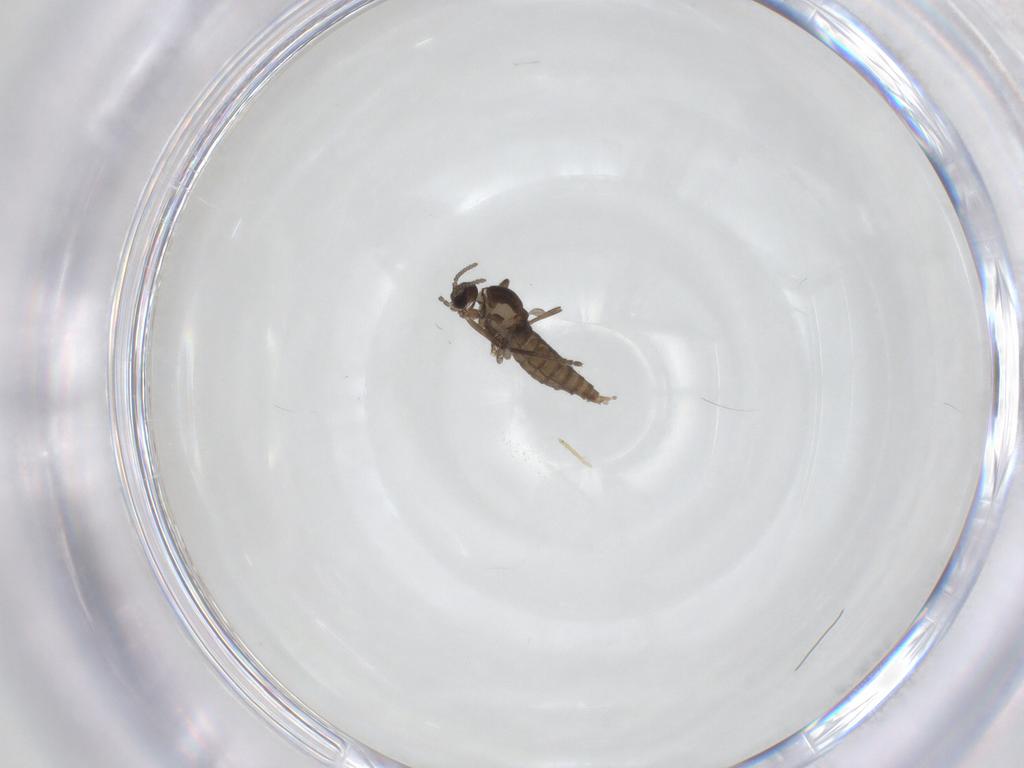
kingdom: Animalia
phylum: Arthropoda
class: Insecta
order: Diptera
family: Cecidomyiidae
